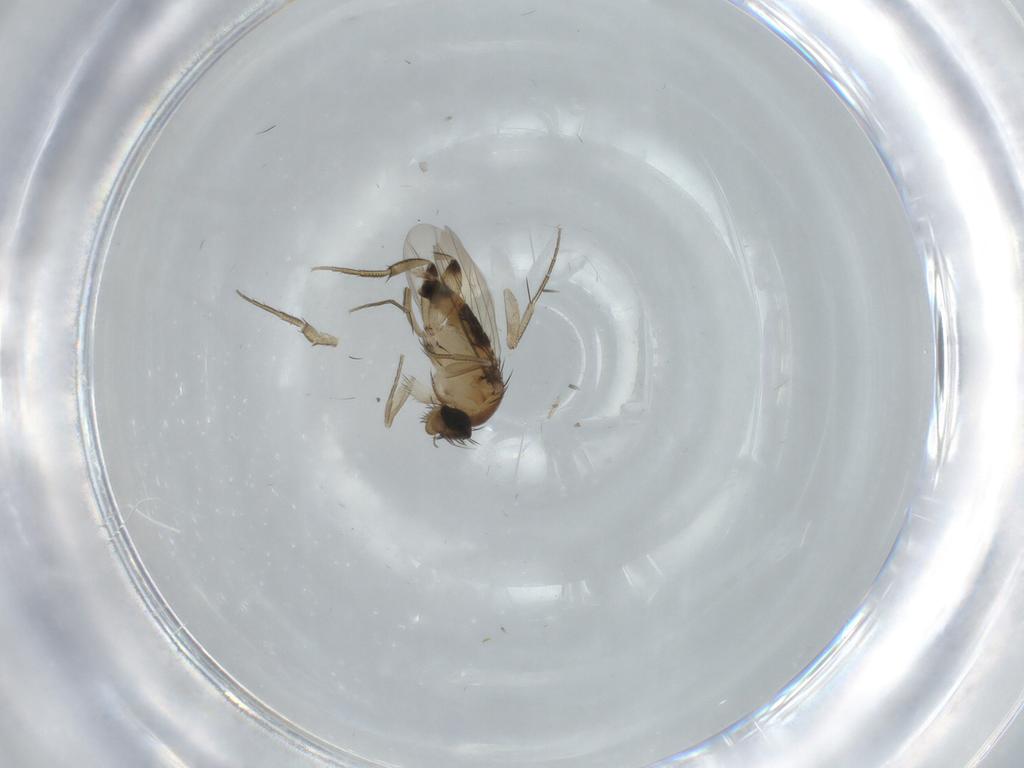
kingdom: Animalia
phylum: Arthropoda
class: Insecta
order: Diptera
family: Phoridae
